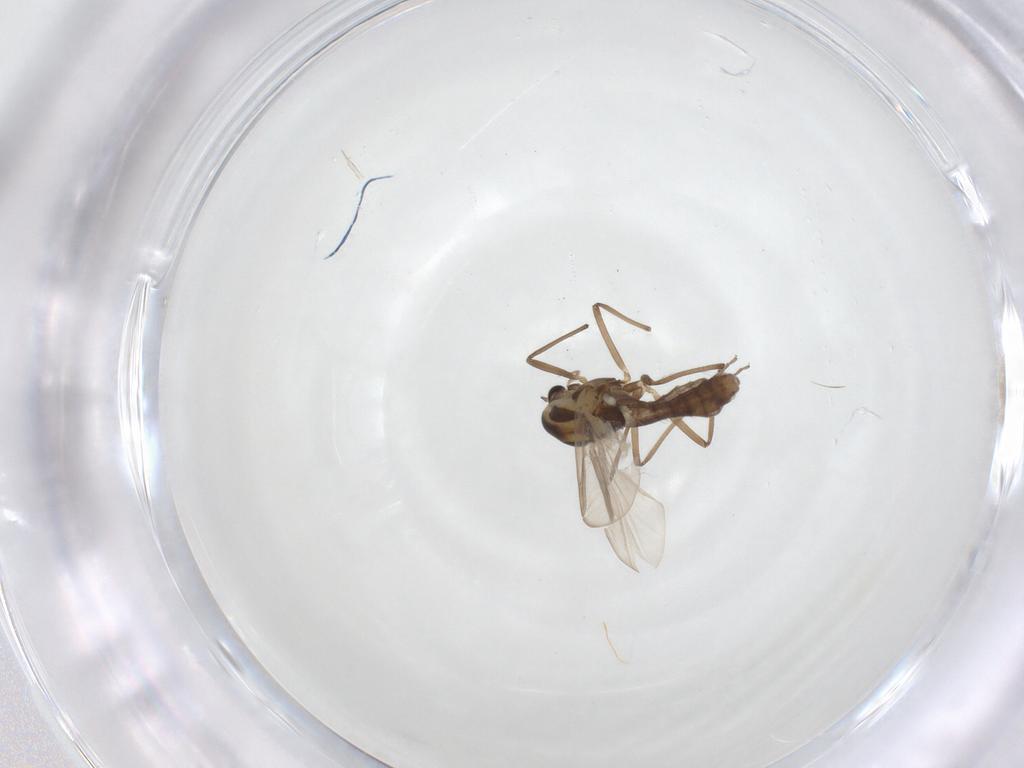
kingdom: Animalia
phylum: Arthropoda
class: Insecta
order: Diptera
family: Chironomidae
